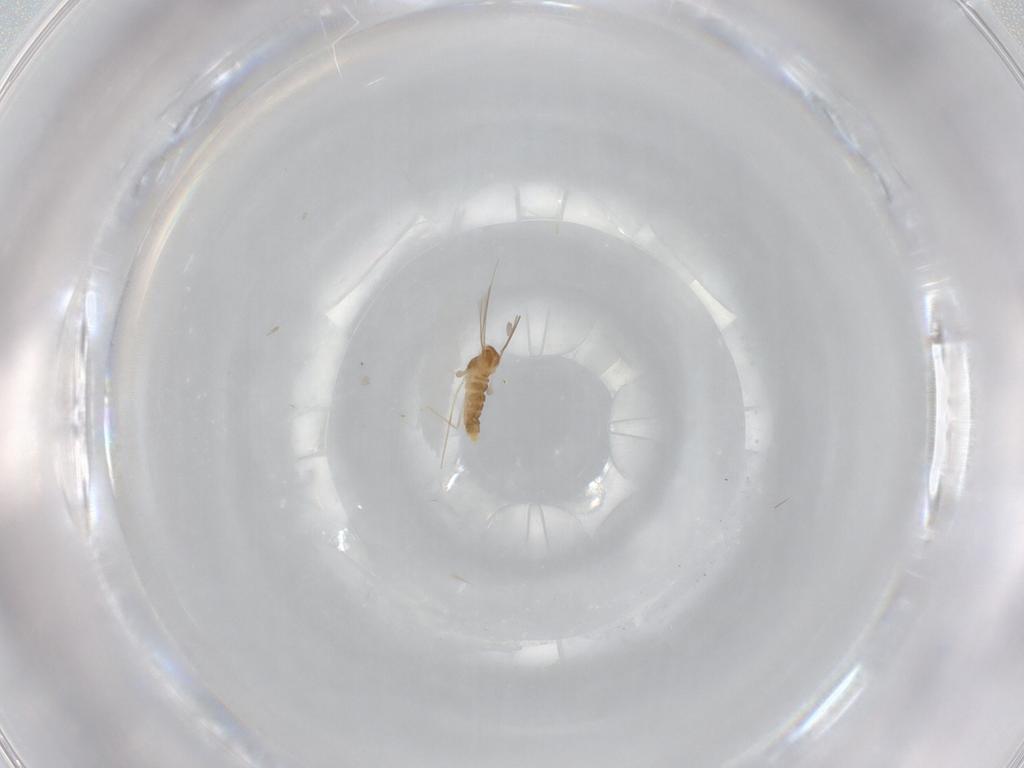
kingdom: Animalia
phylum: Arthropoda
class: Insecta
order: Diptera
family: Cecidomyiidae
